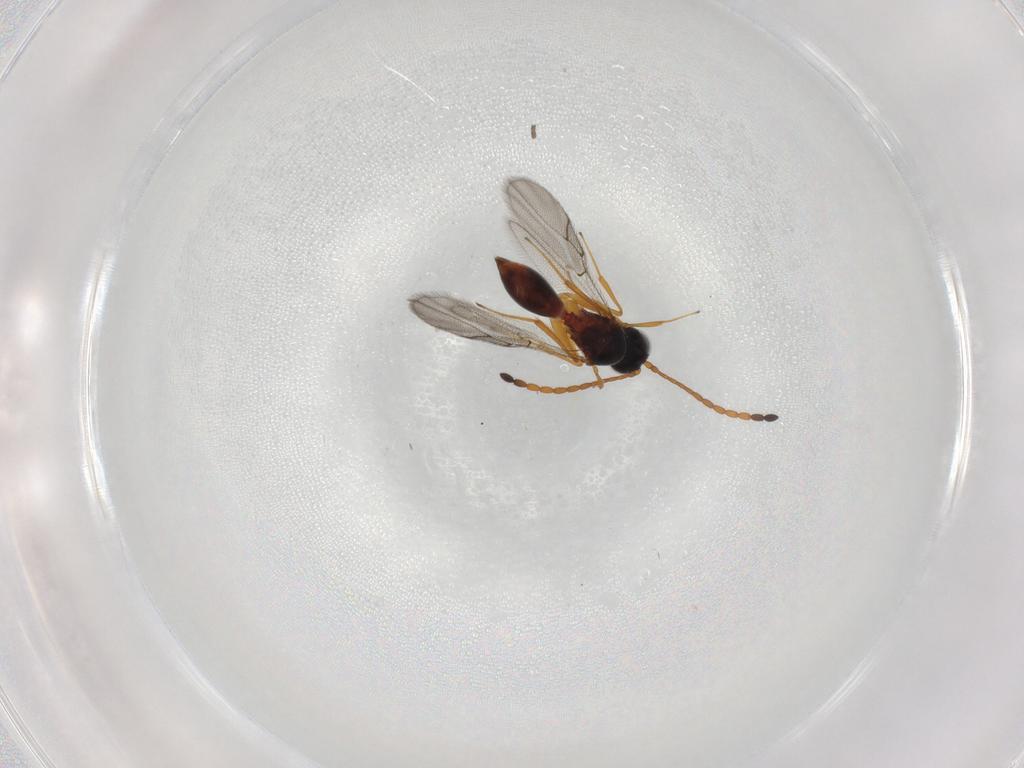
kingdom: Animalia
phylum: Arthropoda
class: Insecta
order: Hymenoptera
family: Figitidae
